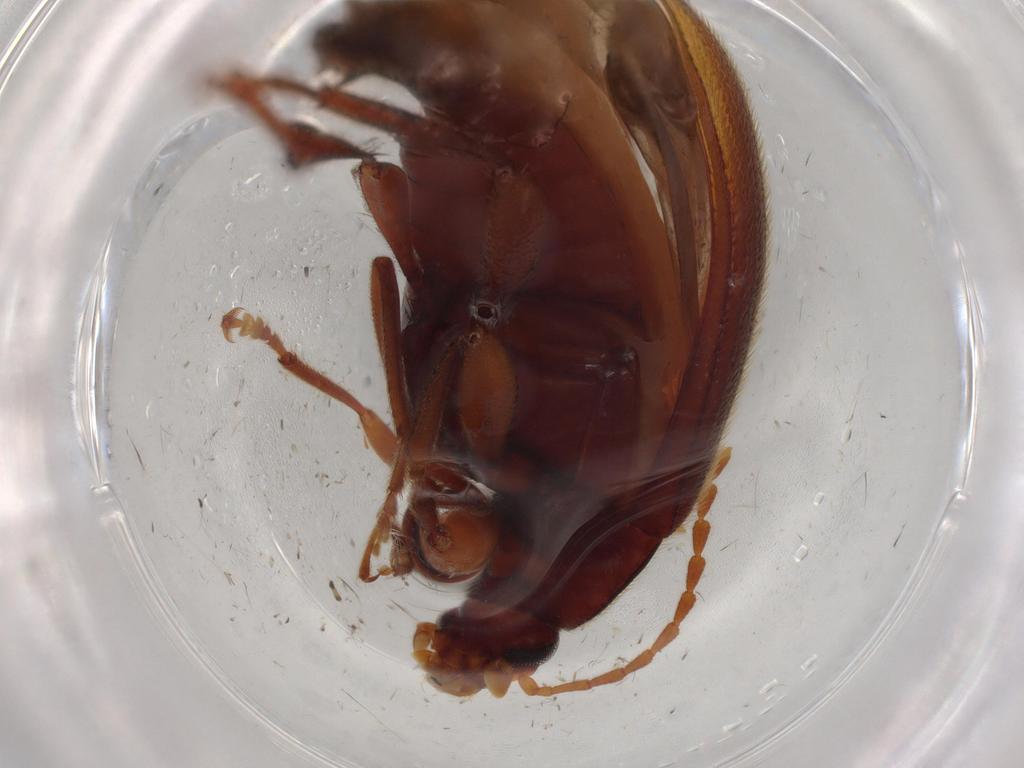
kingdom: Animalia
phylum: Arthropoda
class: Insecta
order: Coleoptera
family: Tenebrionidae
